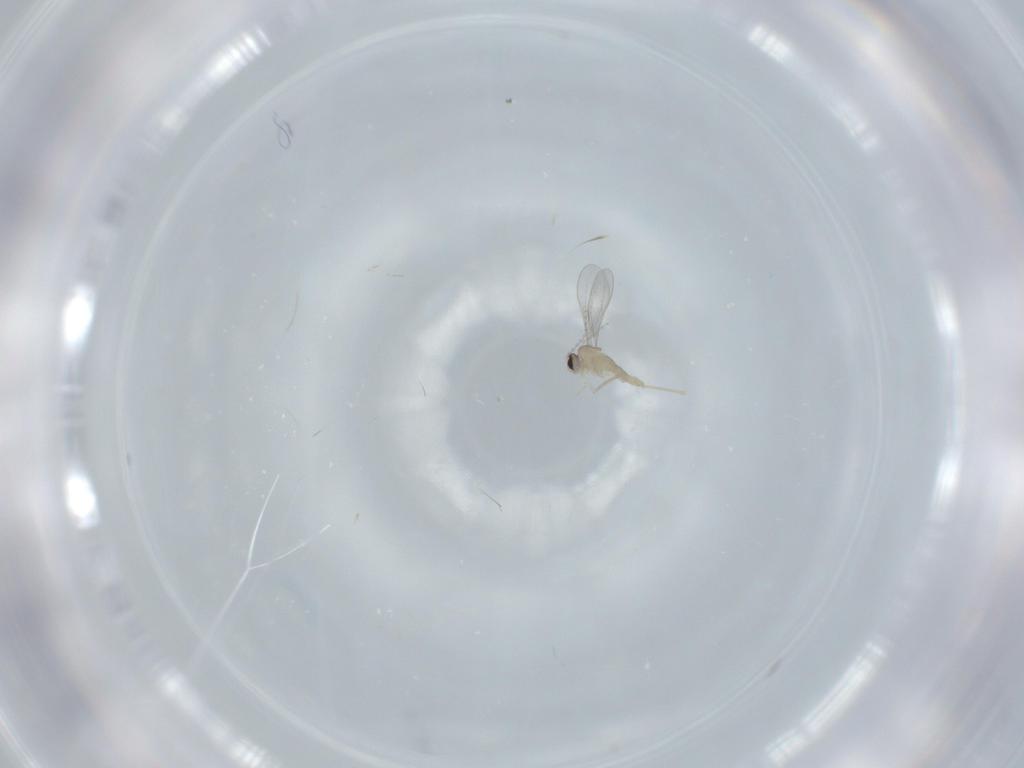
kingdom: Animalia
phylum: Arthropoda
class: Insecta
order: Diptera
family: Cecidomyiidae
